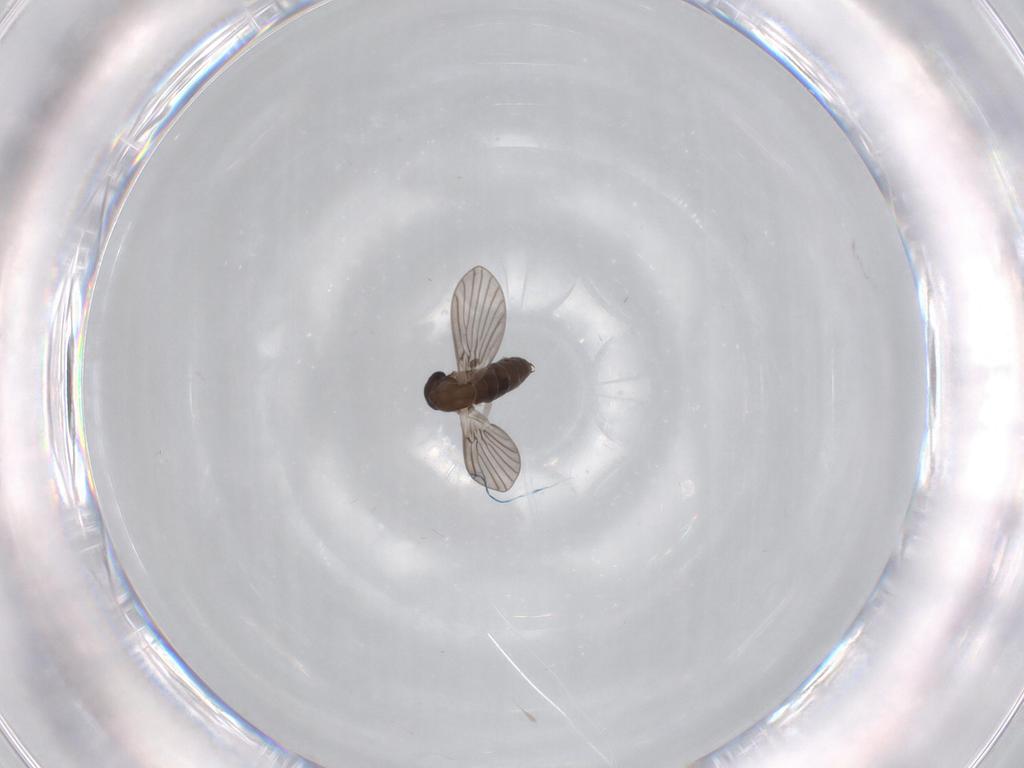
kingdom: Animalia
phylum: Arthropoda
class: Insecta
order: Diptera
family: Cecidomyiidae
